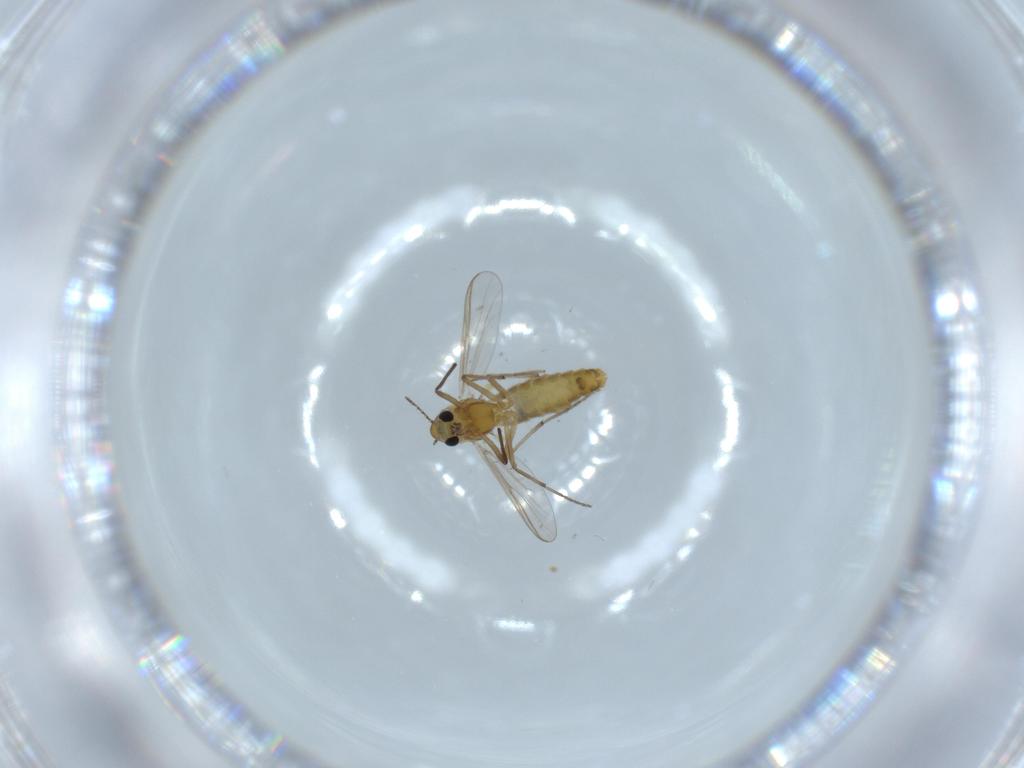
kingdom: Animalia
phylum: Arthropoda
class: Insecta
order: Diptera
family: Chironomidae
